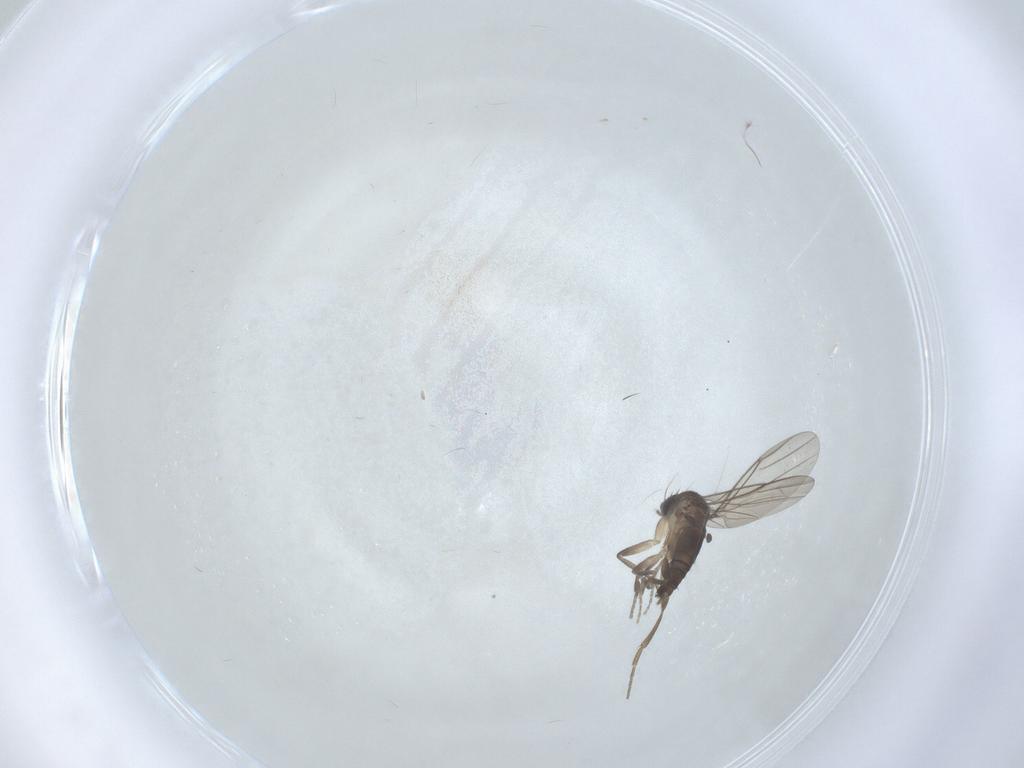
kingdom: Animalia
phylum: Arthropoda
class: Insecta
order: Diptera
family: Phoridae
